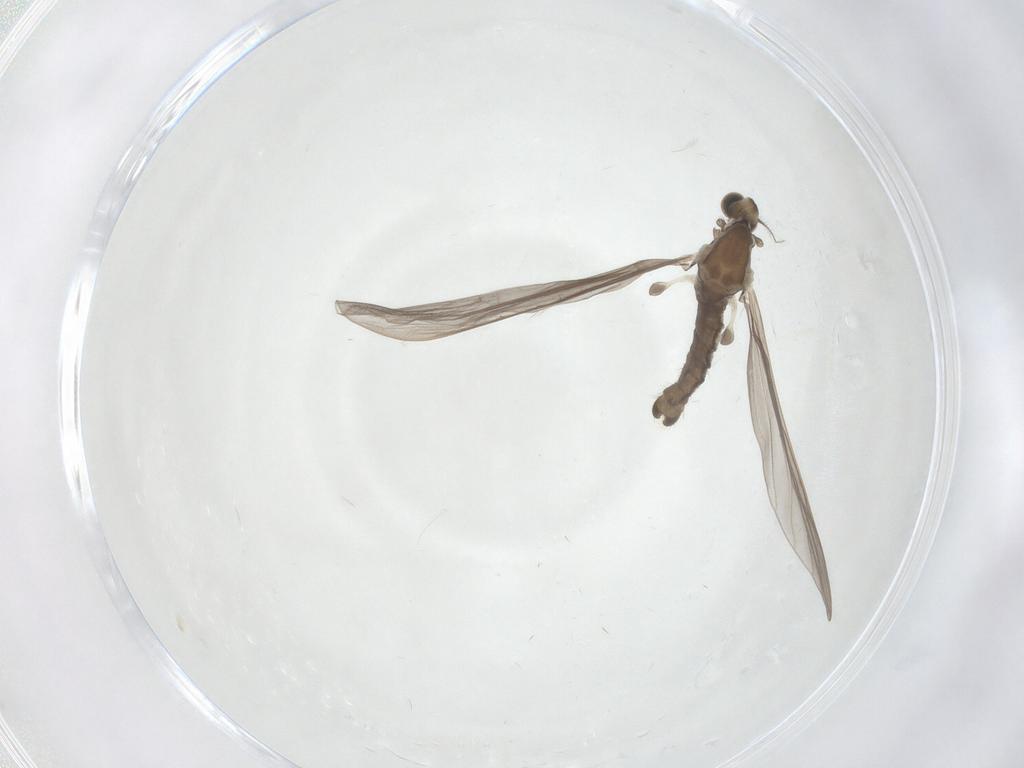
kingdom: Animalia
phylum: Arthropoda
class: Insecta
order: Diptera
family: Limoniidae
